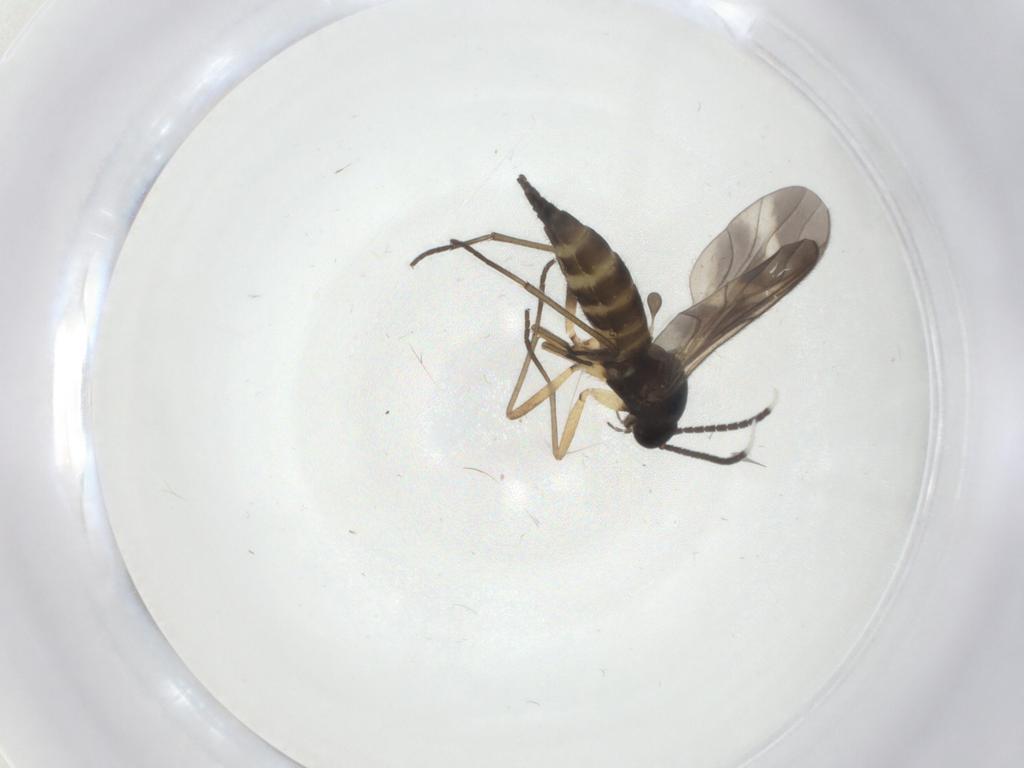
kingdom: Animalia
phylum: Arthropoda
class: Insecta
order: Diptera
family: Sciaridae
